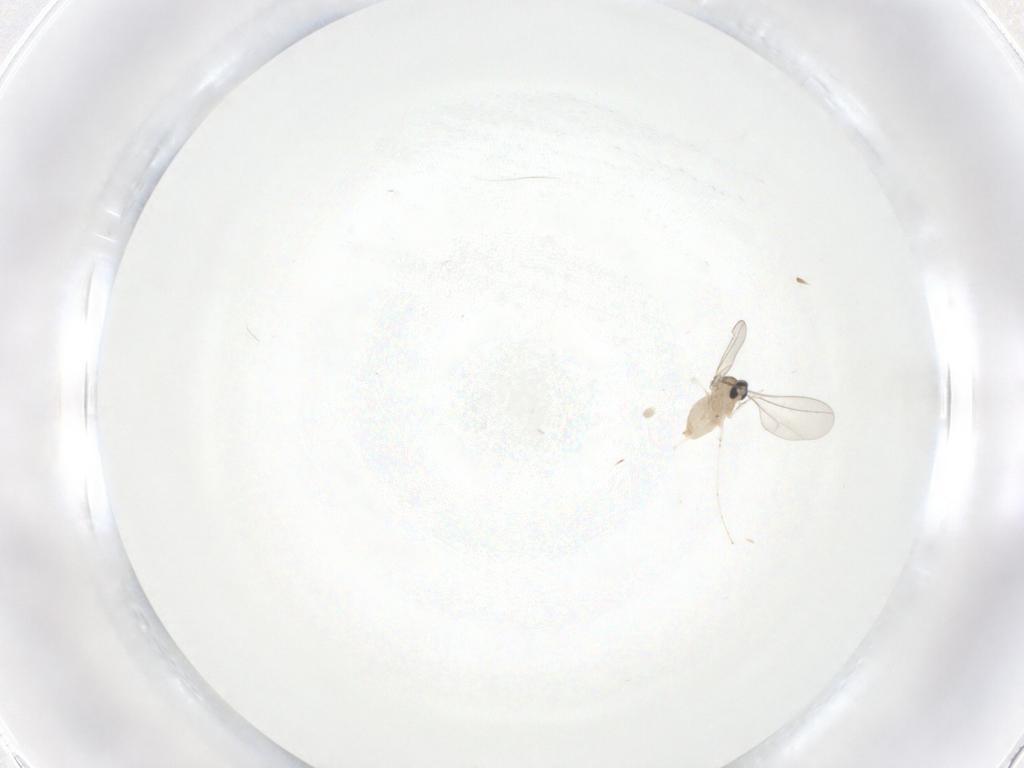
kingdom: Animalia
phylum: Arthropoda
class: Insecta
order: Diptera
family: Cecidomyiidae
